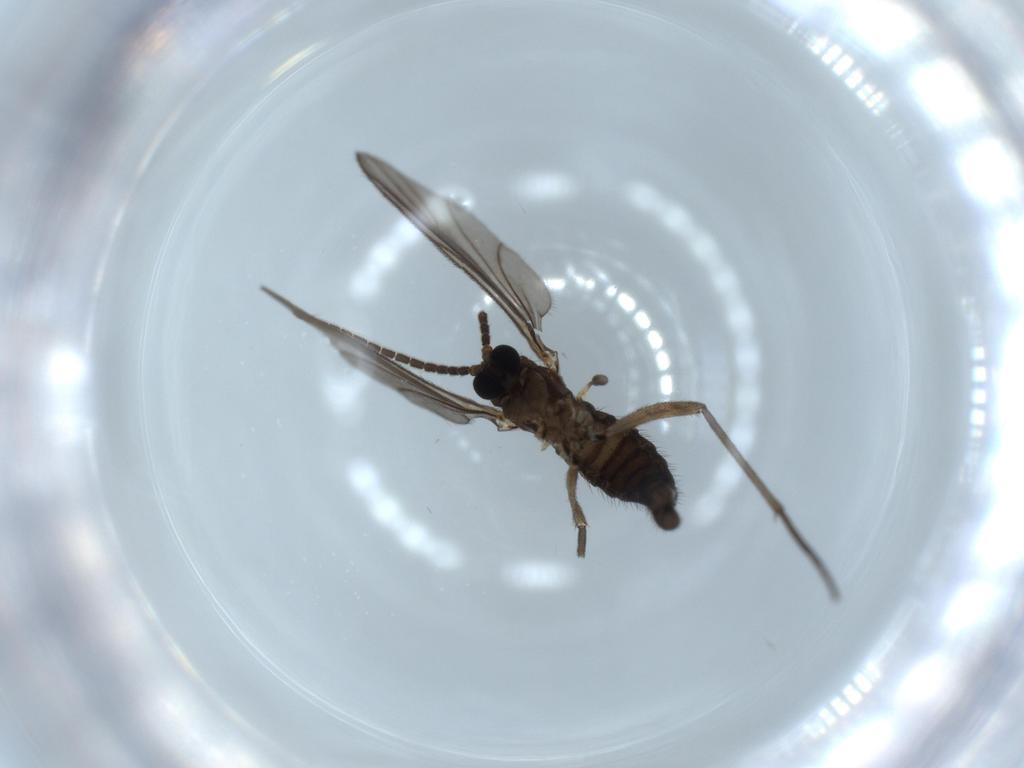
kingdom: Animalia
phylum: Arthropoda
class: Insecta
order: Diptera
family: Sciaridae
